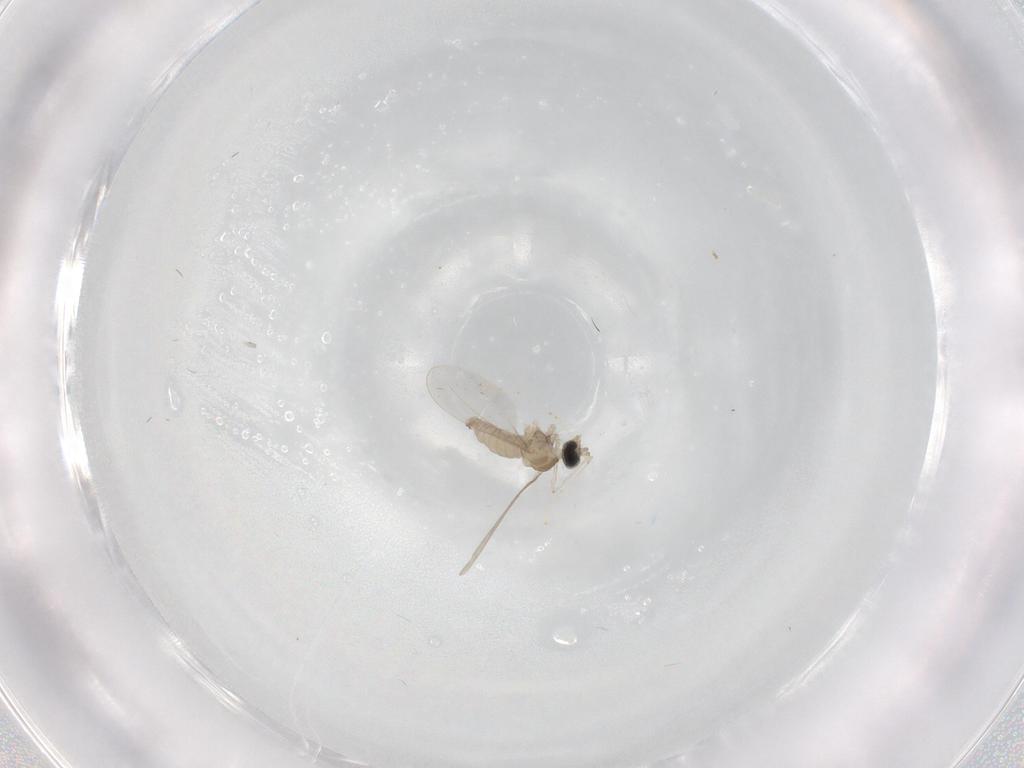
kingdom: Animalia
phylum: Arthropoda
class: Insecta
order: Diptera
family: Cecidomyiidae
